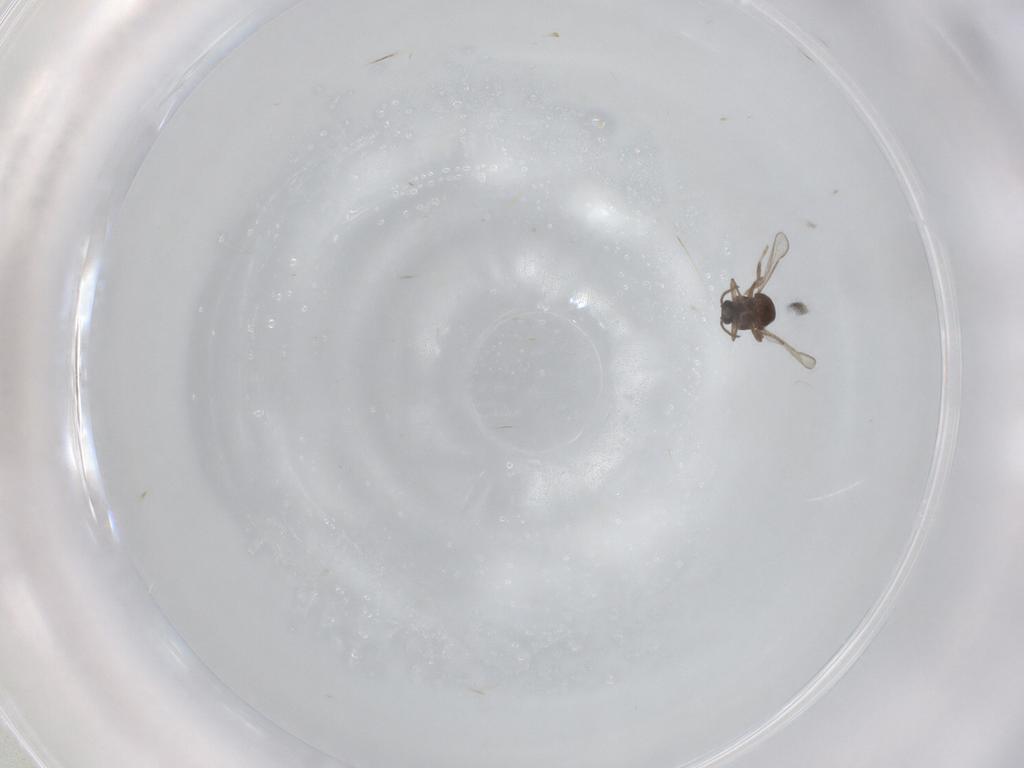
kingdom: Animalia
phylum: Arthropoda
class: Insecta
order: Diptera
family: Ceratopogonidae
